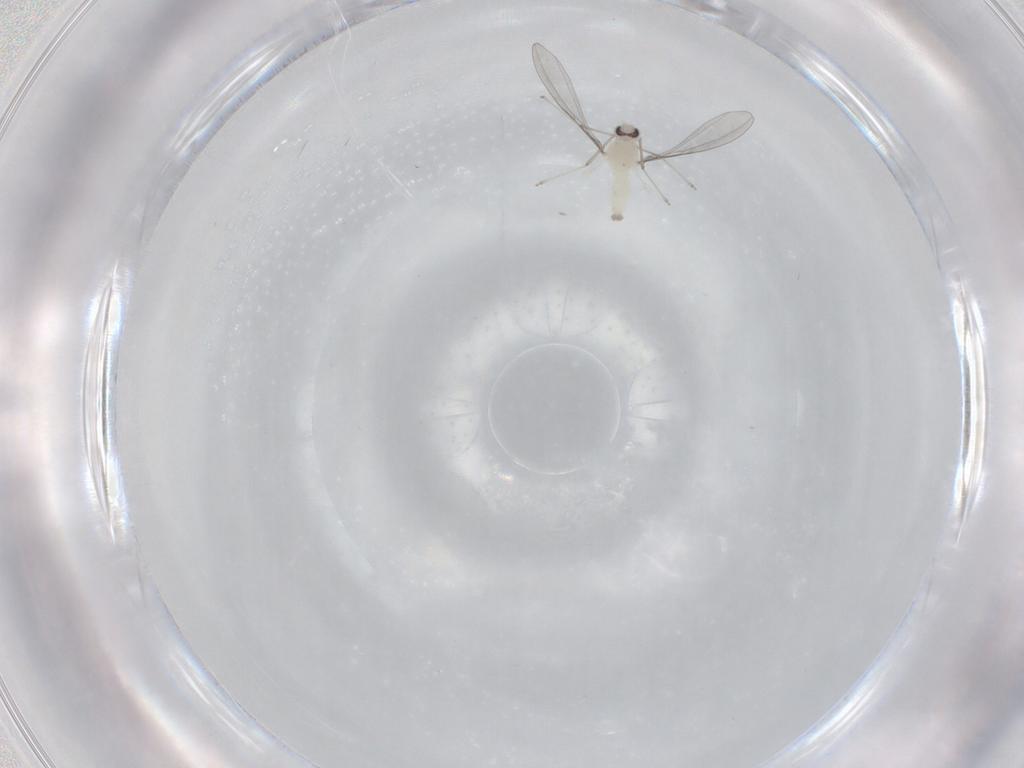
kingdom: Animalia
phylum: Arthropoda
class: Insecta
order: Diptera
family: Cecidomyiidae
